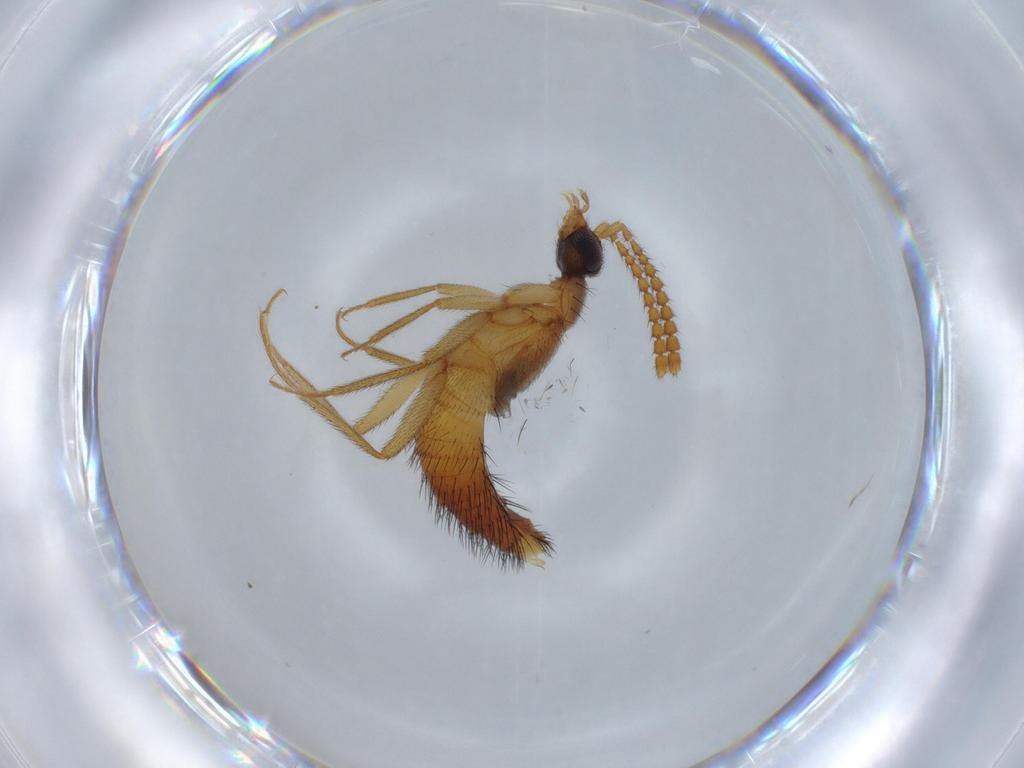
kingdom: Animalia
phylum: Arthropoda
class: Insecta
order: Coleoptera
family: Staphylinidae
